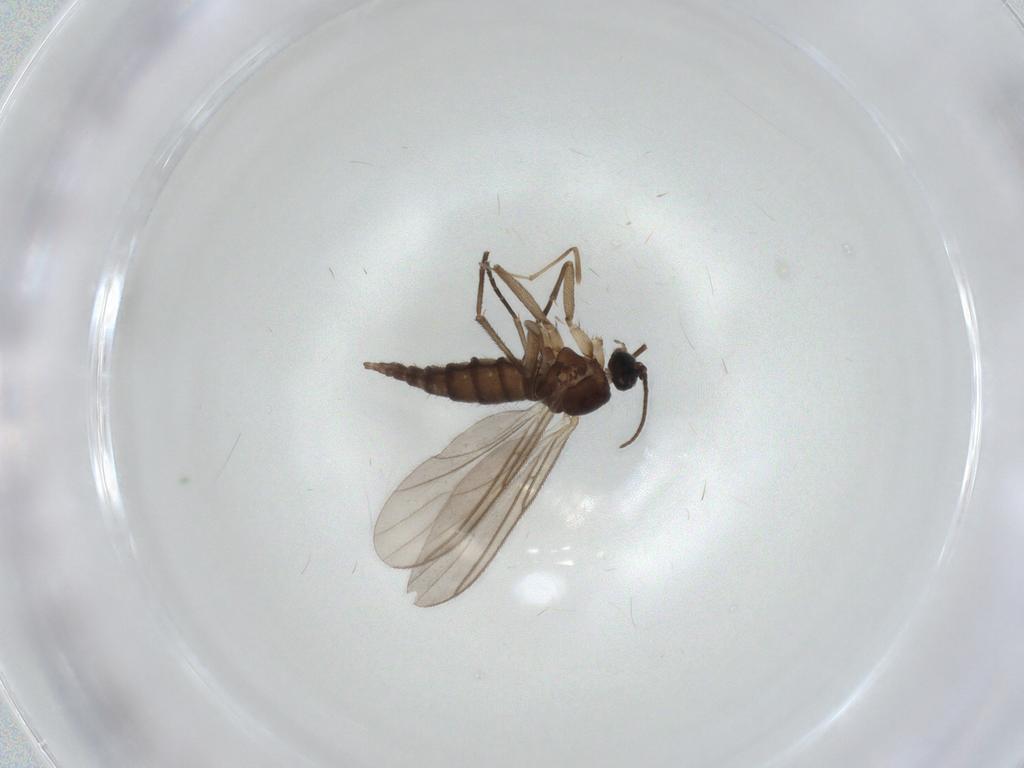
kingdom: Animalia
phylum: Arthropoda
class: Insecta
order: Diptera
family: Sciaridae
